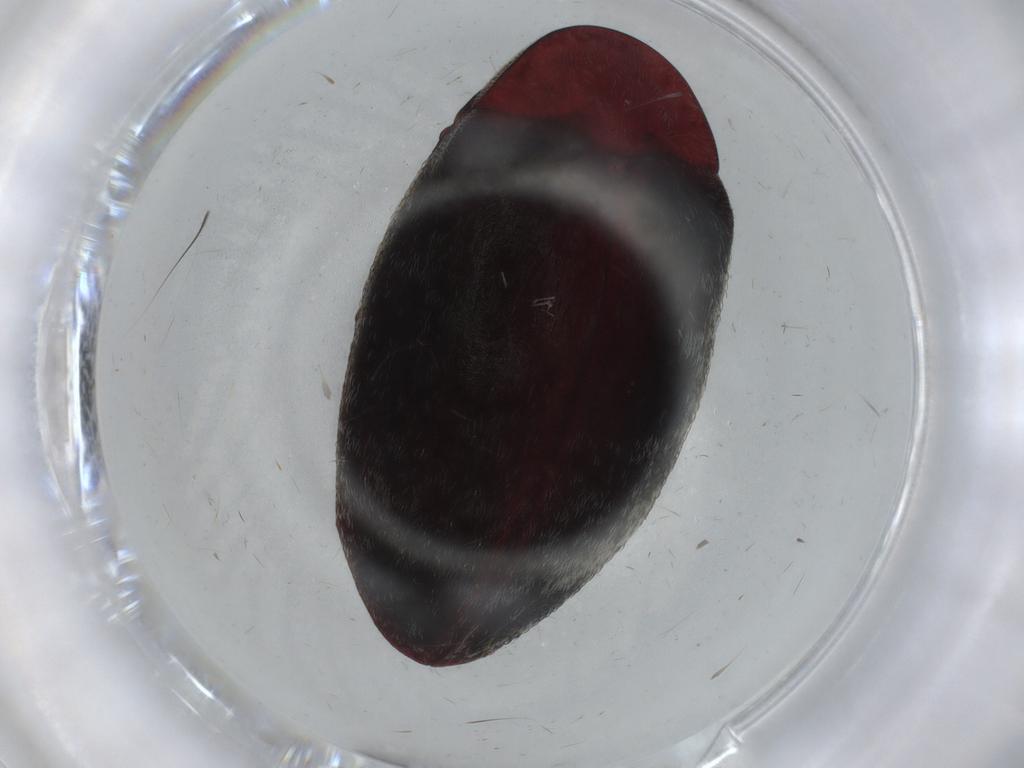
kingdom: Animalia
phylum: Arthropoda
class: Insecta
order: Coleoptera
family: Chelonariidae
